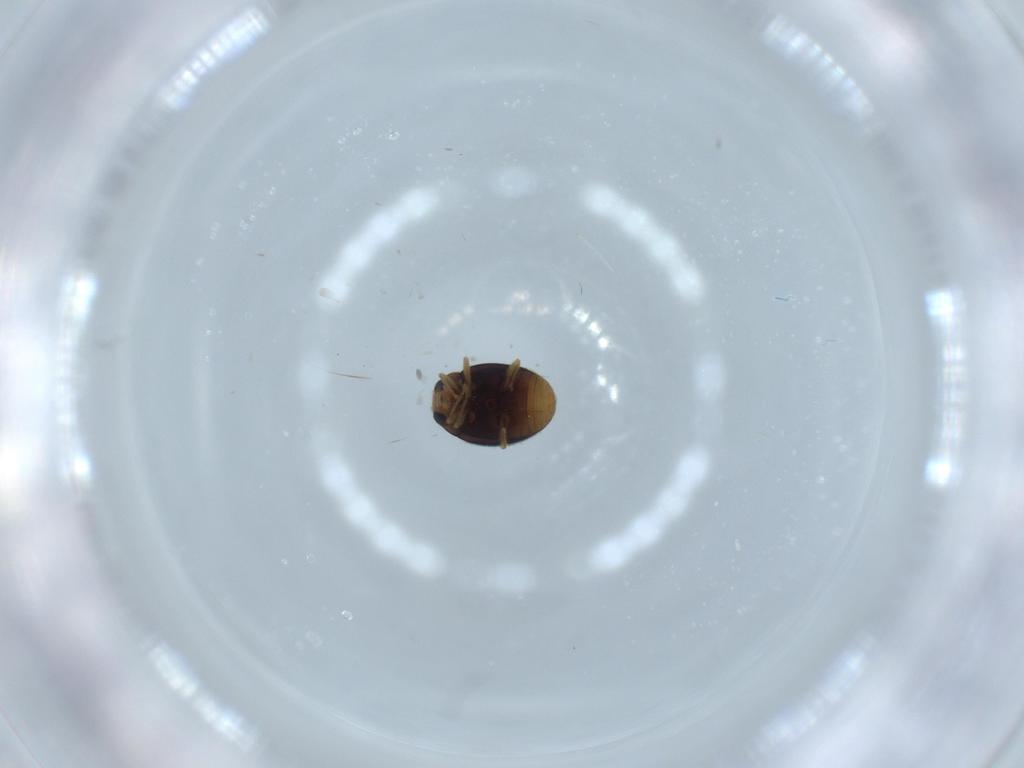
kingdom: Animalia
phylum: Arthropoda
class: Insecta
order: Coleoptera
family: Coccinellidae
